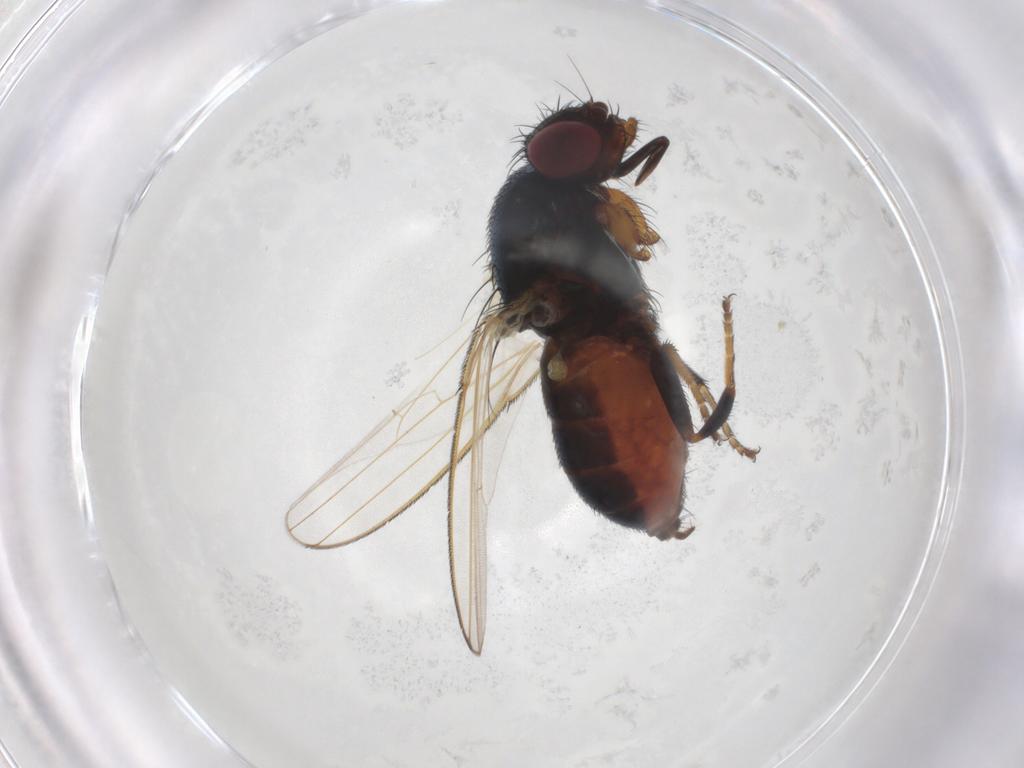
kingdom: Animalia
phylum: Arthropoda
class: Insecta
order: Diptera
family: Milichiidae
